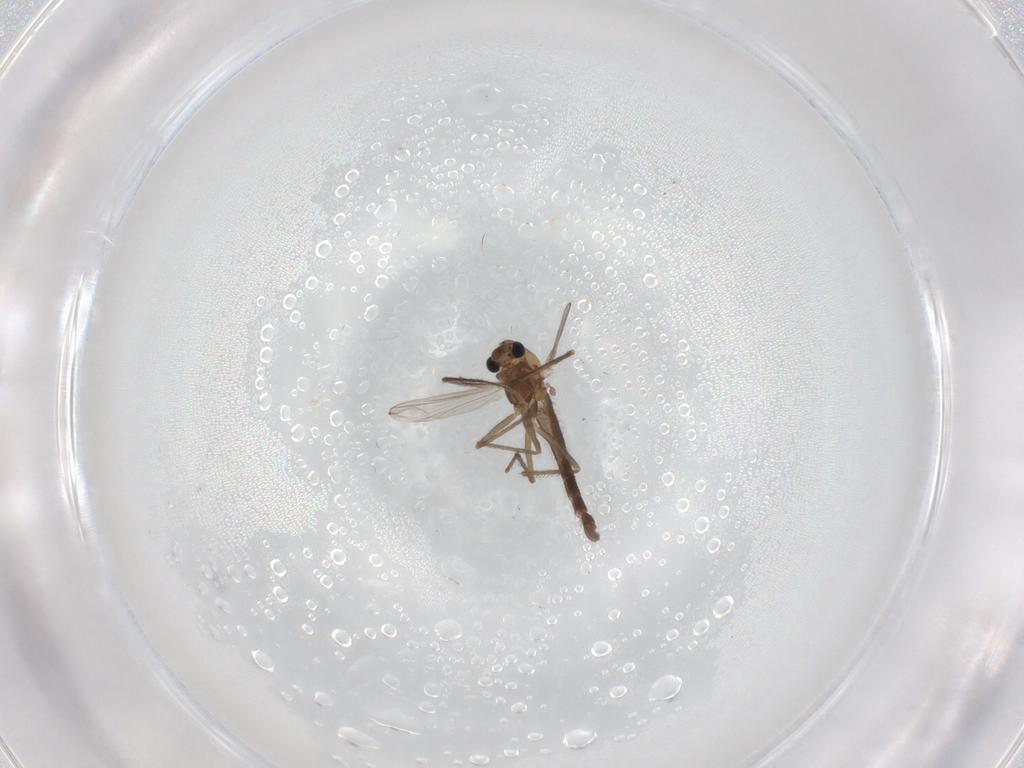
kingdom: Animalia
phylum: Arthropoda
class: Insecta
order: Diptera
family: Chironomidae
